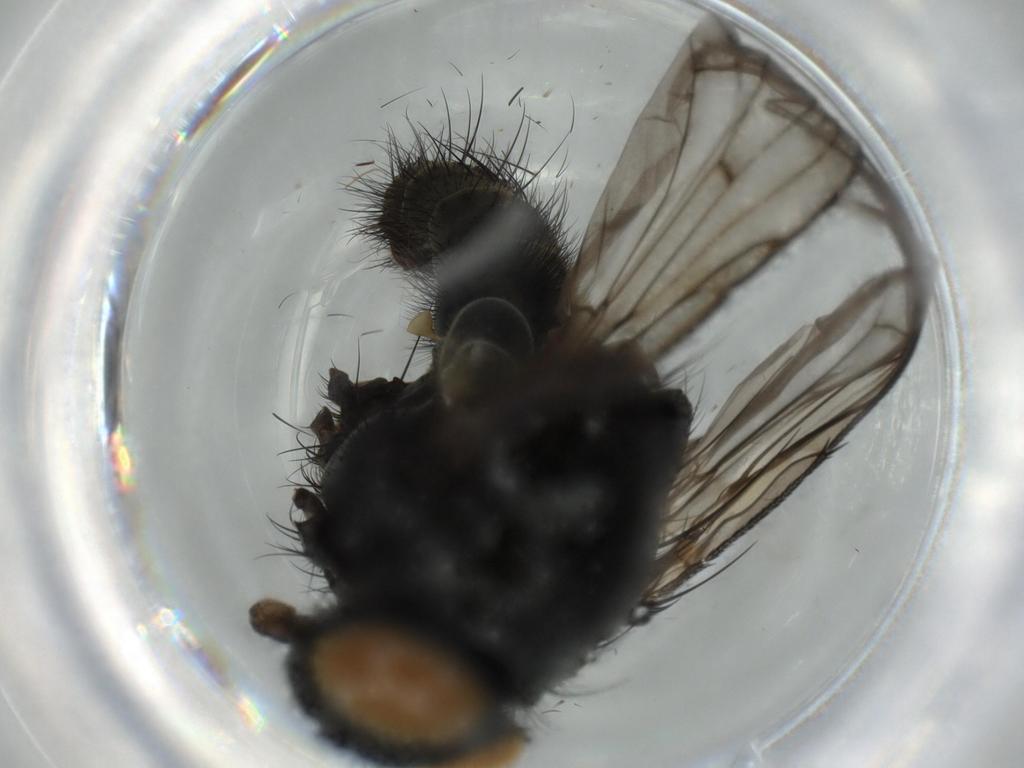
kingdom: Animalia
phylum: Arthropoda
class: Insecta
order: Diptera
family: Muscidae
